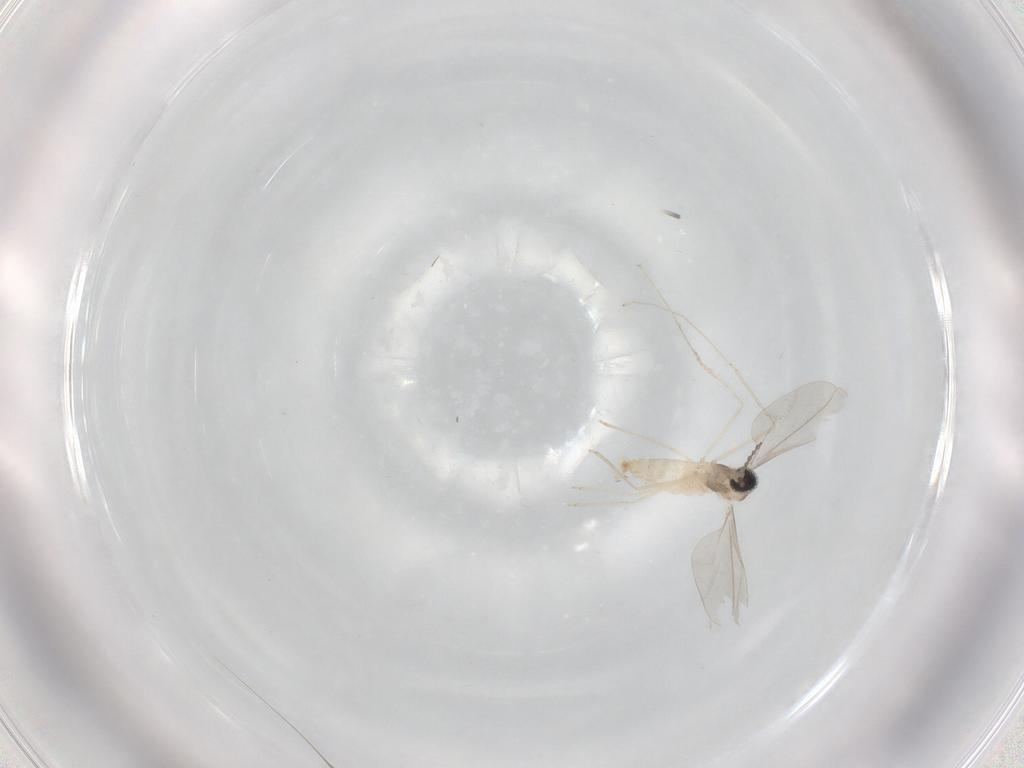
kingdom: Animalia
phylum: Arthropoda
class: Insecta
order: Diptera
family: Cecidomyiidae
